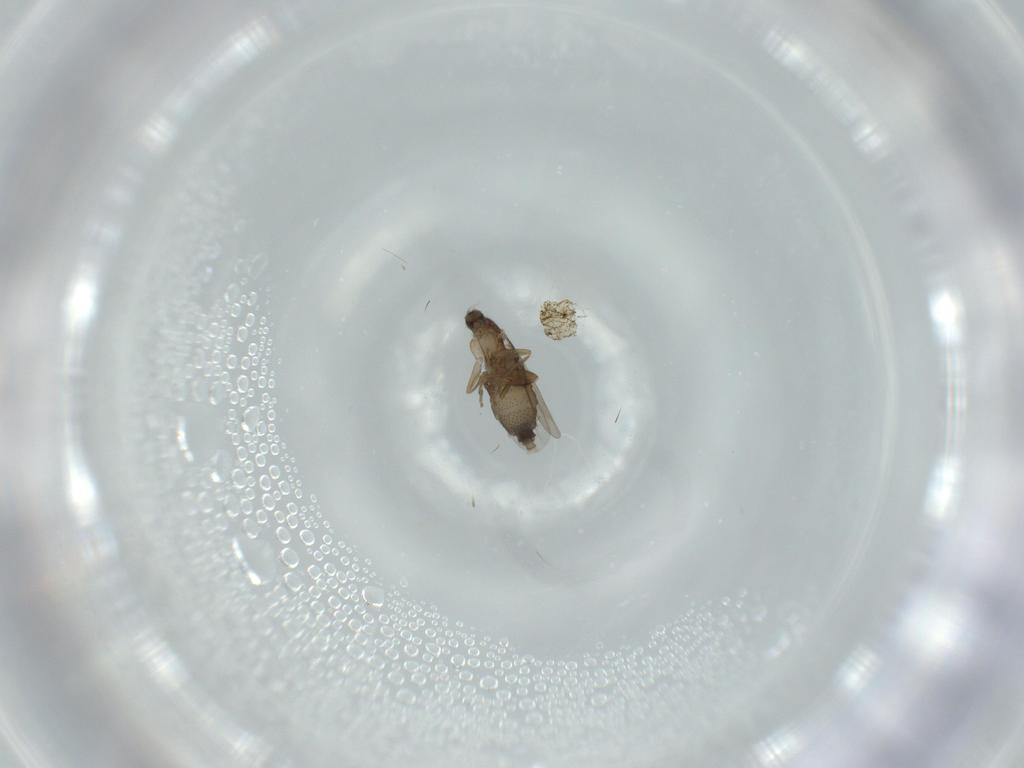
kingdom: Animalia
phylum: Arthropoda
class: Insecta
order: Diptera
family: Phoridae
